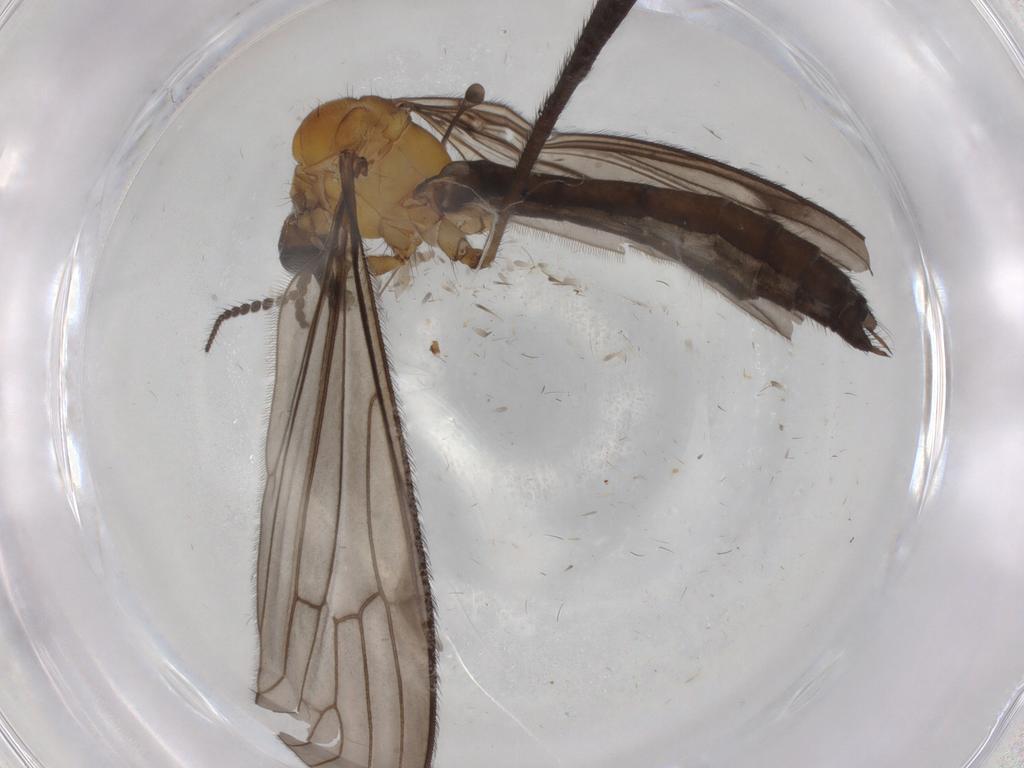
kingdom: Animalia
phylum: Arthropoda
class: Insecta
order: Diptera
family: Phoridae
